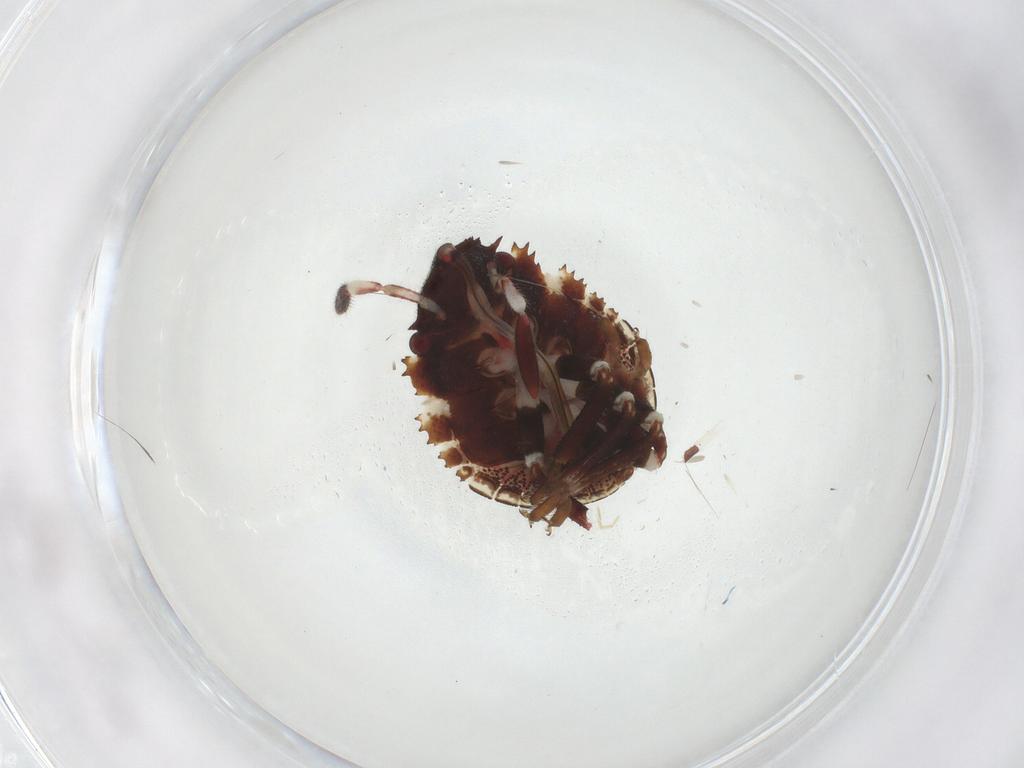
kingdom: Animalia
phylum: Arthropoda
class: Insecta
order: Hemiptera
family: Scutelleridae
